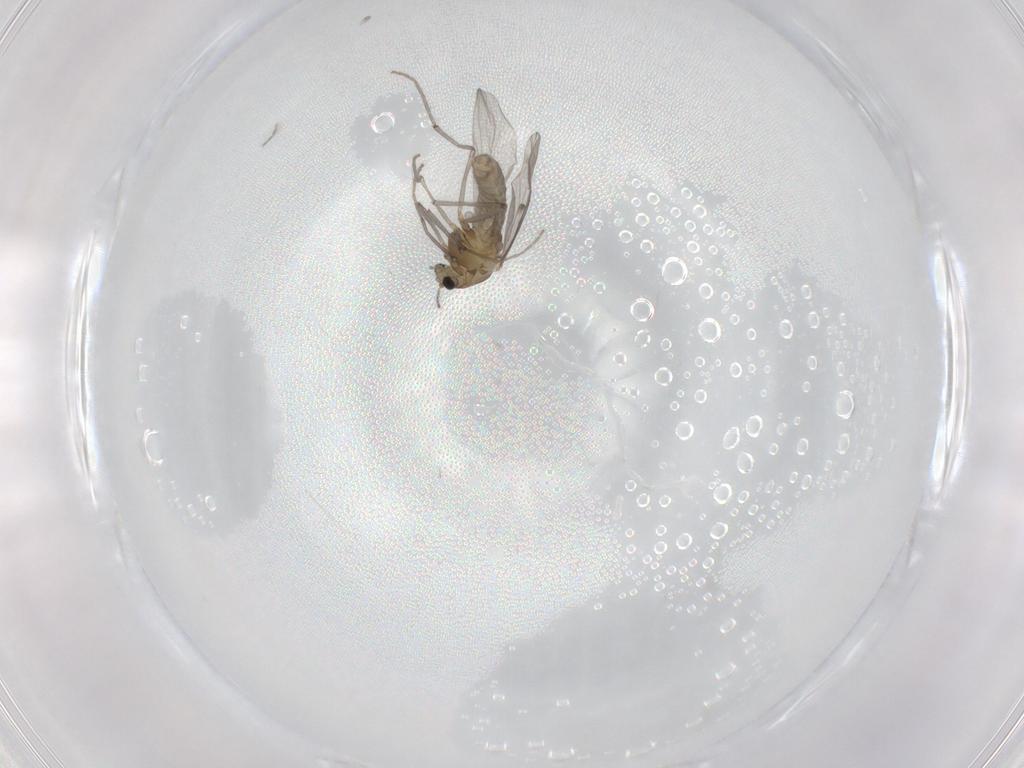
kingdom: Animalia
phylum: Arthropoda
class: Insecta
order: Diptera
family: Chironomidae
